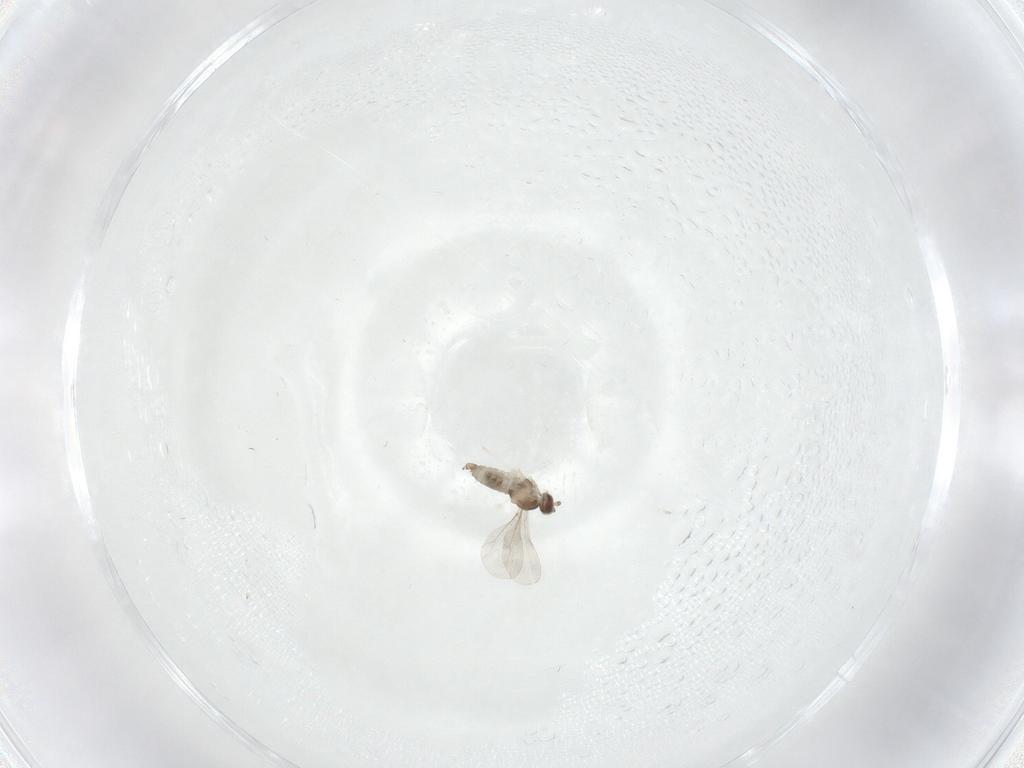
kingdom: Animalia
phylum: Arthropoda
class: Insecta
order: Diptera
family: Cecidomyiidae
